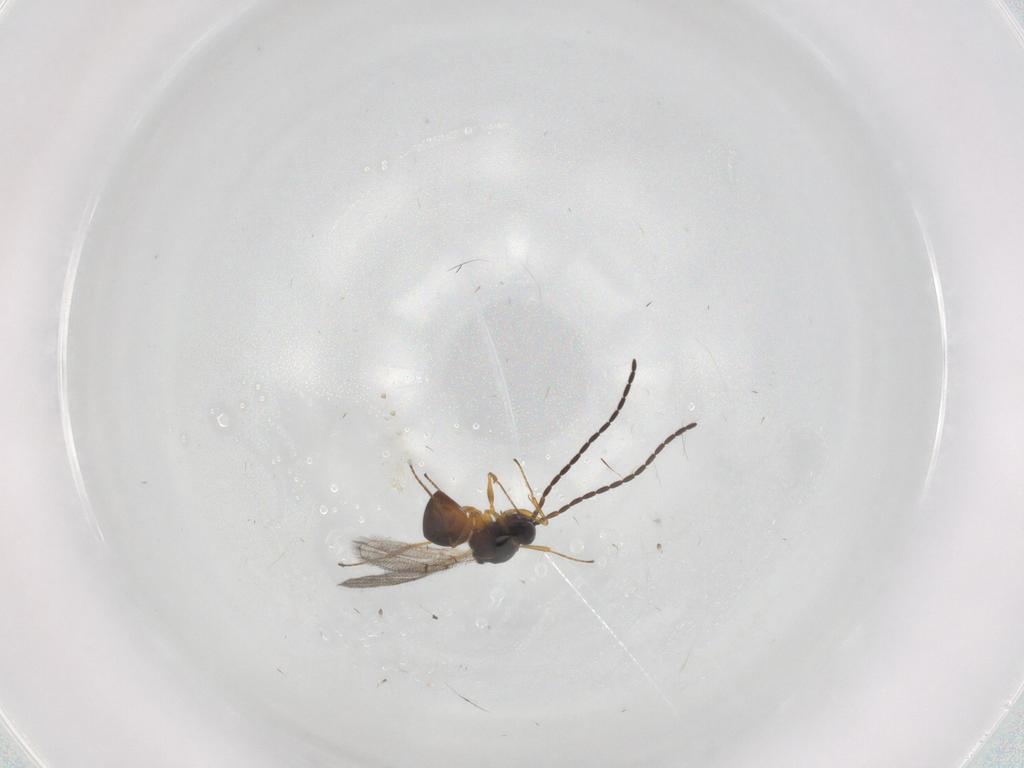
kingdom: Animalia
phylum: Arthropoda
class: Insecta
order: Hymenoptera
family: Figitidae
